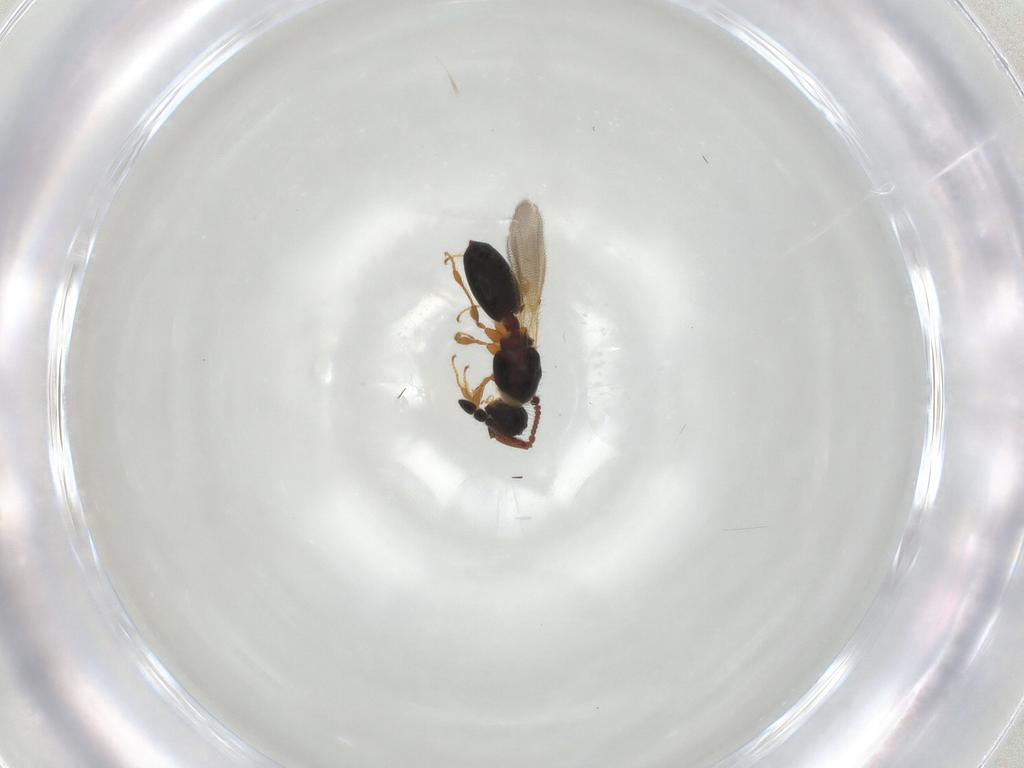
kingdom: Animalia
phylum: Arthropoda
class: Insecta
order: Hymenoptera
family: Diapriidae
